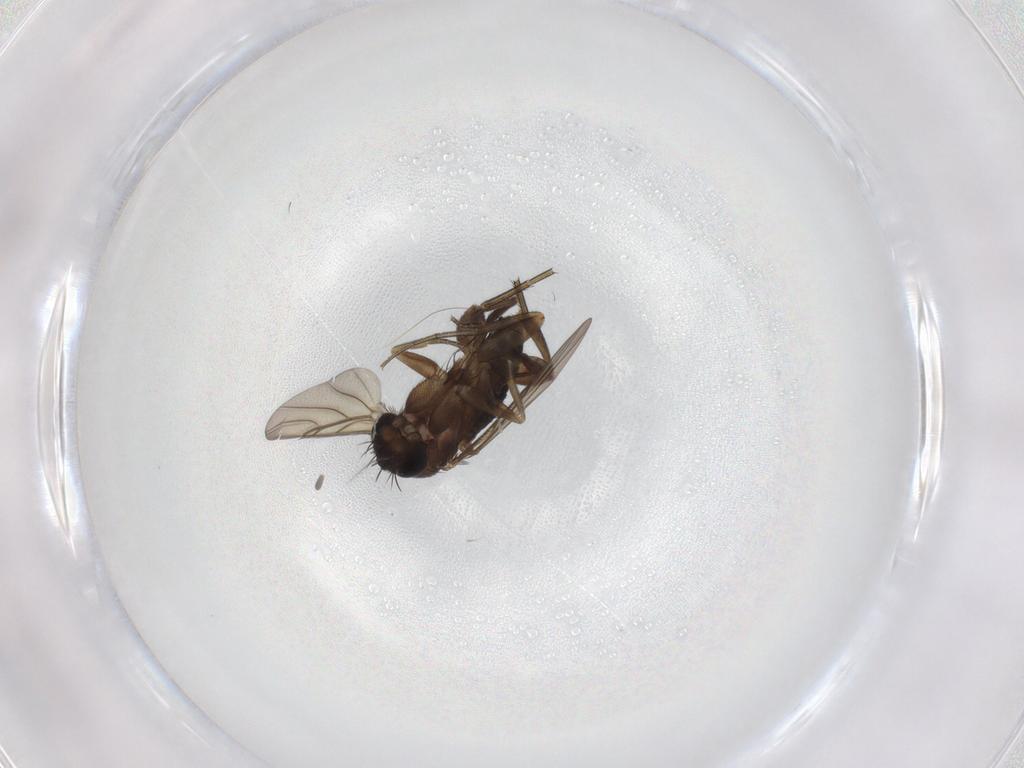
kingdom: Animalia
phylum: Arthropoda
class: Insecta
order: Diptera
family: Phoridae
